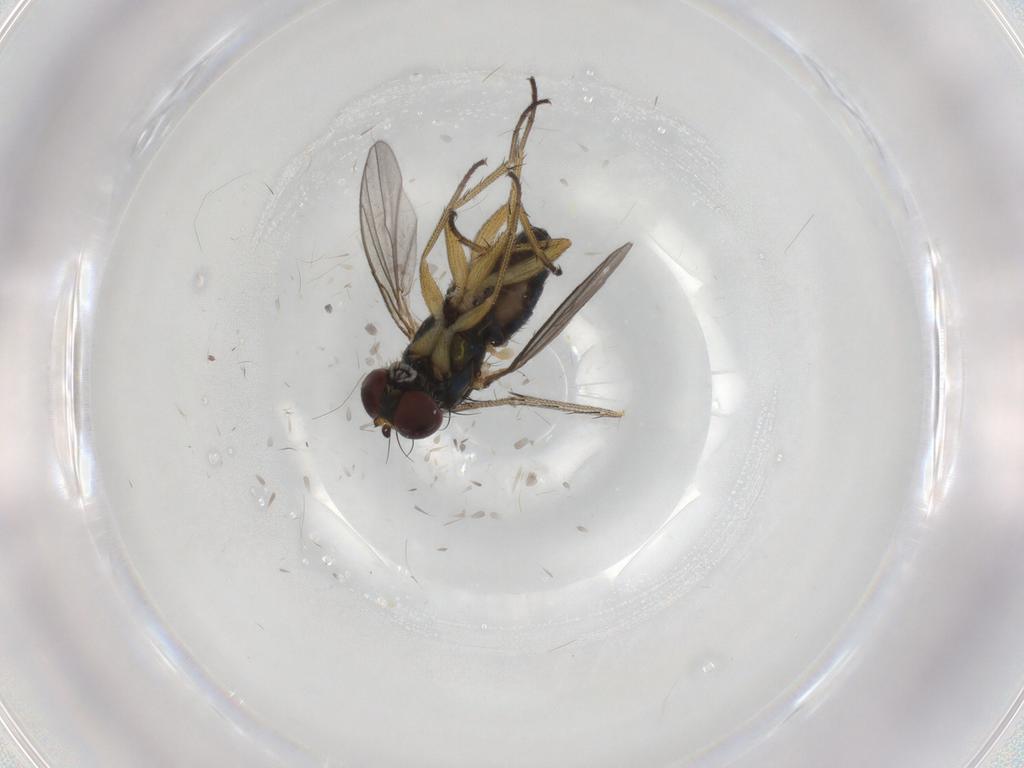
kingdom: Animalia
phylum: Arthropoda
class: Insecta
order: Diptera
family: Dolichopodidae
